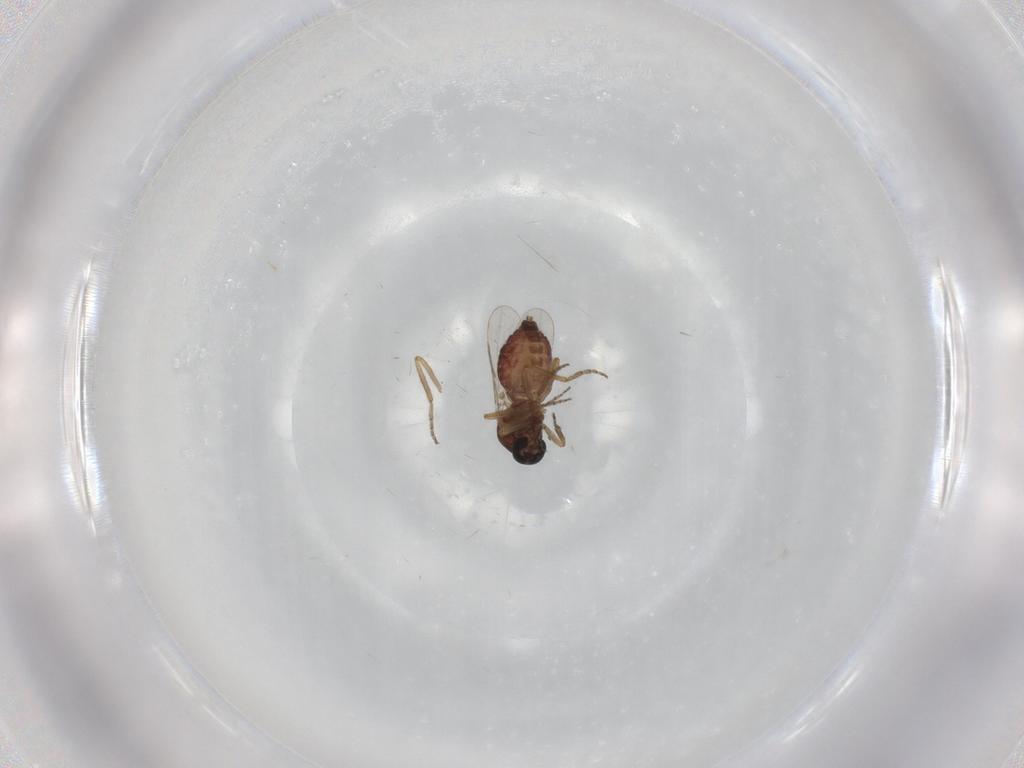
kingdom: Animalia
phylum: Arthropoda
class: Insecta
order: Diptera
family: Ceratopogonidae
